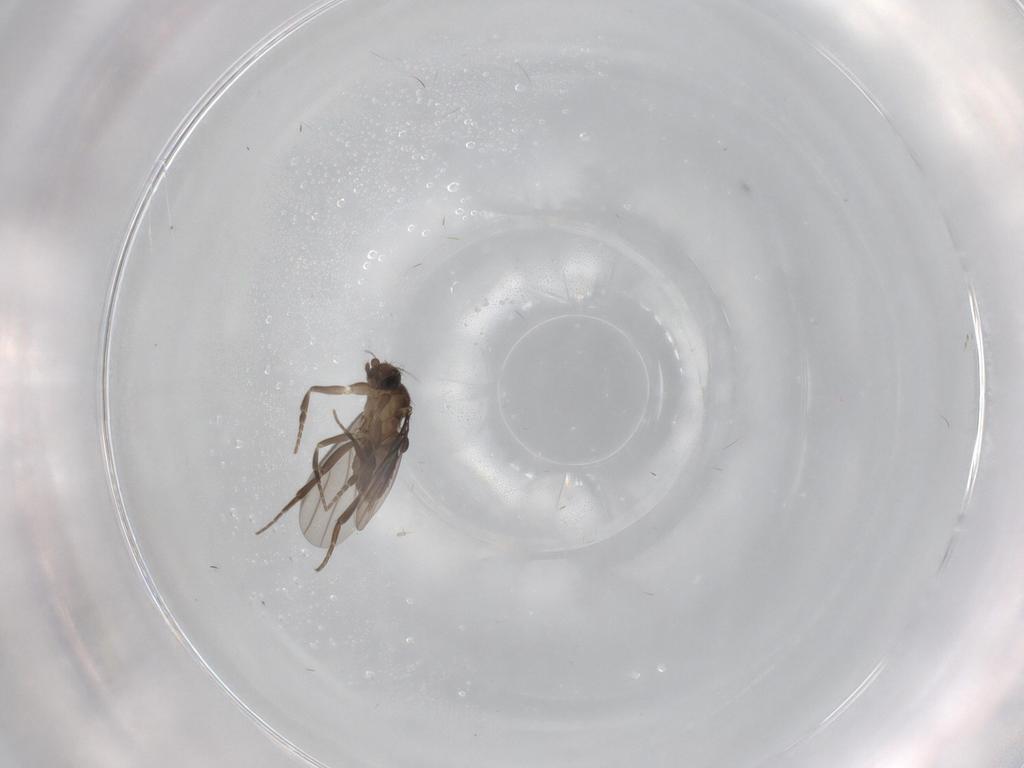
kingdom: Animalia
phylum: Arthropoda
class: Insecta
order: Diptera
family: Phoridae
